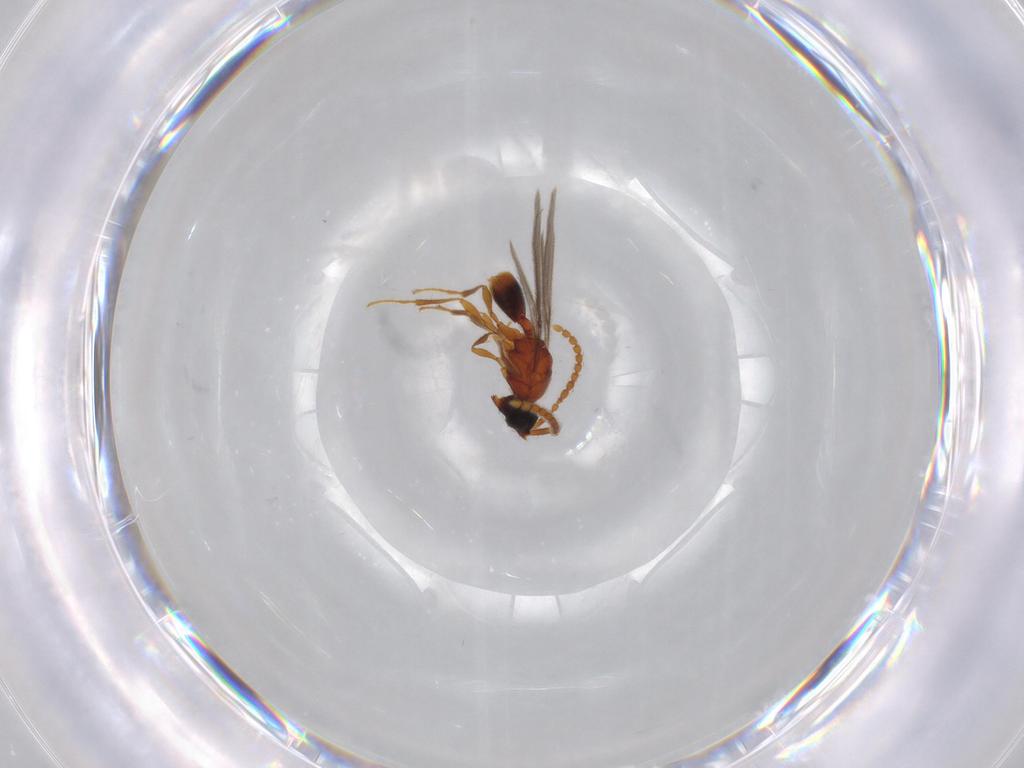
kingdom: Animalia
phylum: Arthropoda
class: Insecta
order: Hymenoptera
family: Diapriidae
